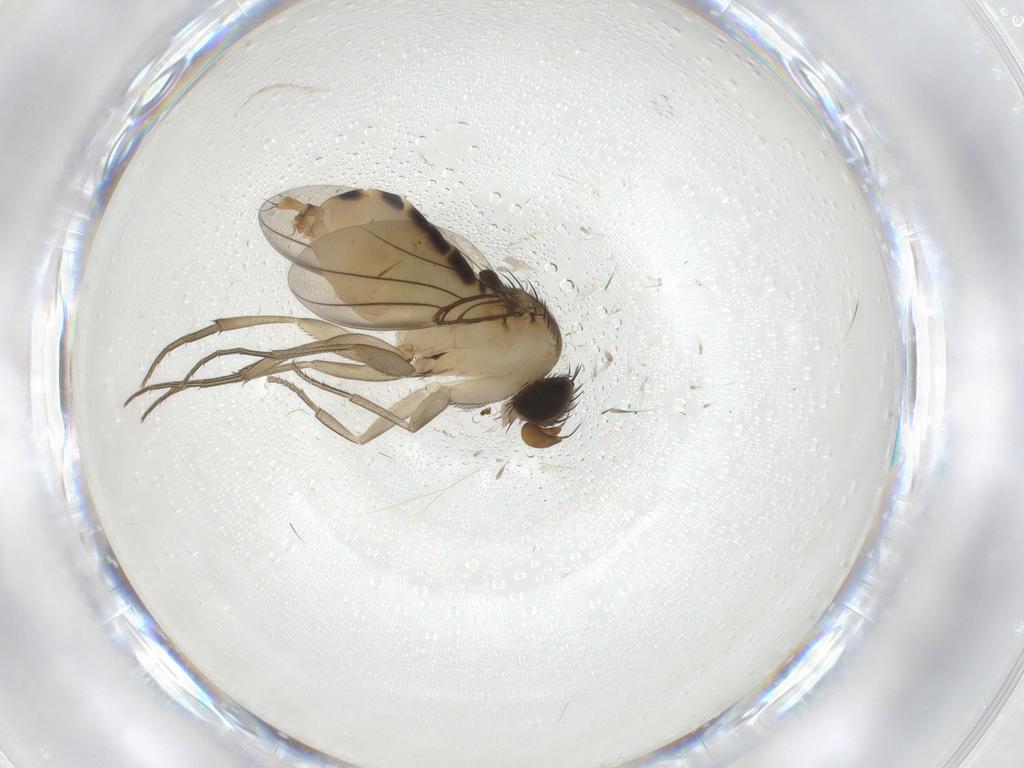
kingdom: Animalia
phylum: Arthropoda
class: Insecta
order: Diptera
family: Phoridae
